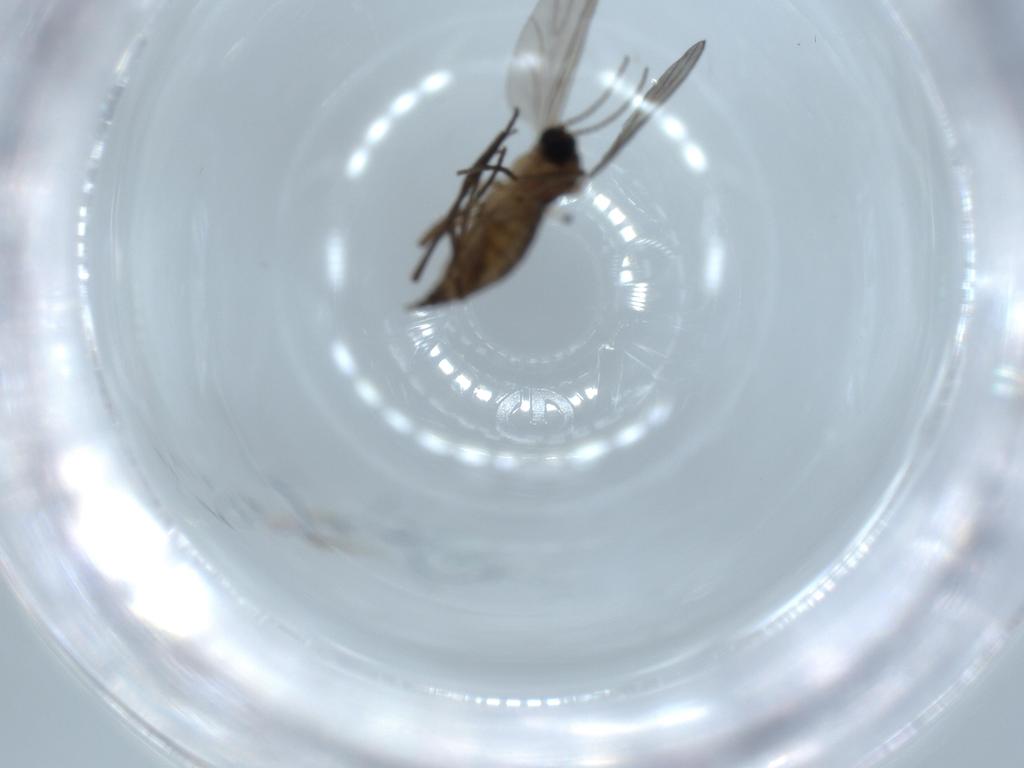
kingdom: Animalia
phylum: Arthropoda
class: Insecta
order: Diptera
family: Sciaridae
